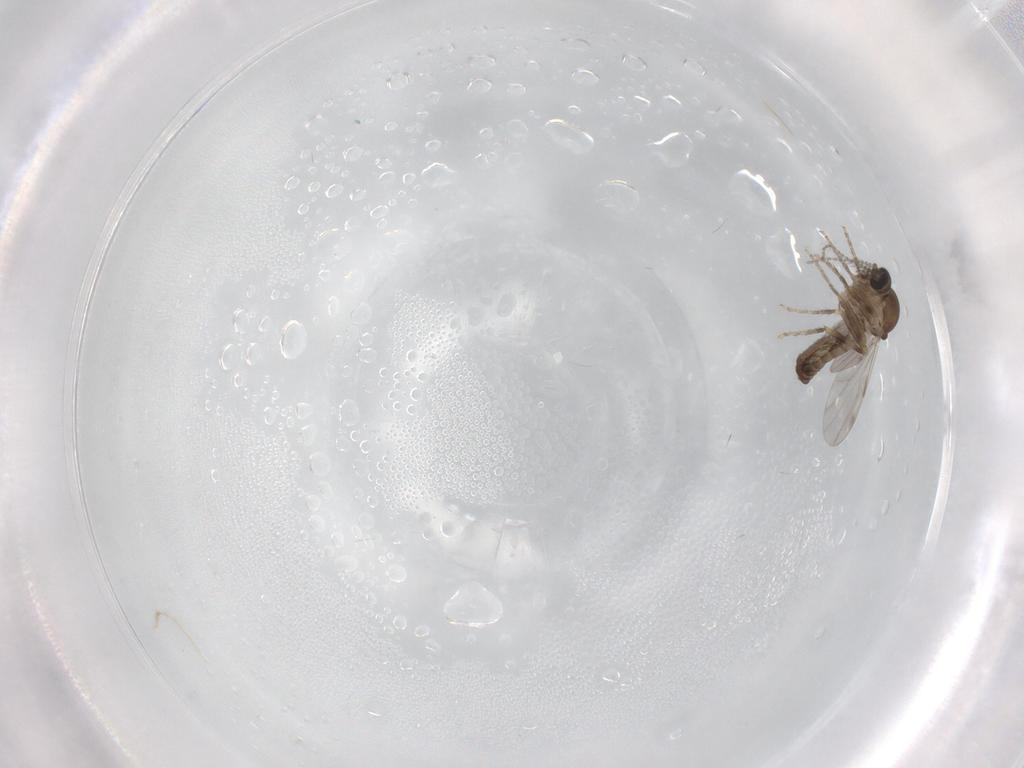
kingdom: Animalia
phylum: Arthropoda
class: Insecta
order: Diptera
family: Ceratopogonidae
